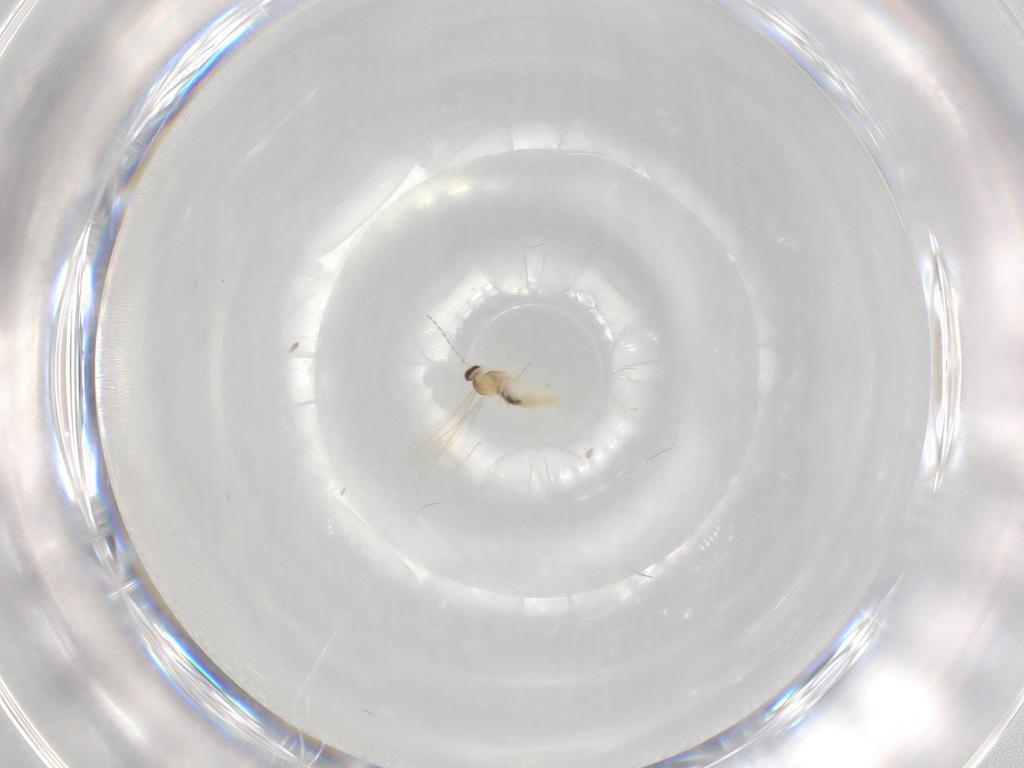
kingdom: Animalia
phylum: Arthropoda
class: Insecta
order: Diptera
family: Cecidomyiidae
